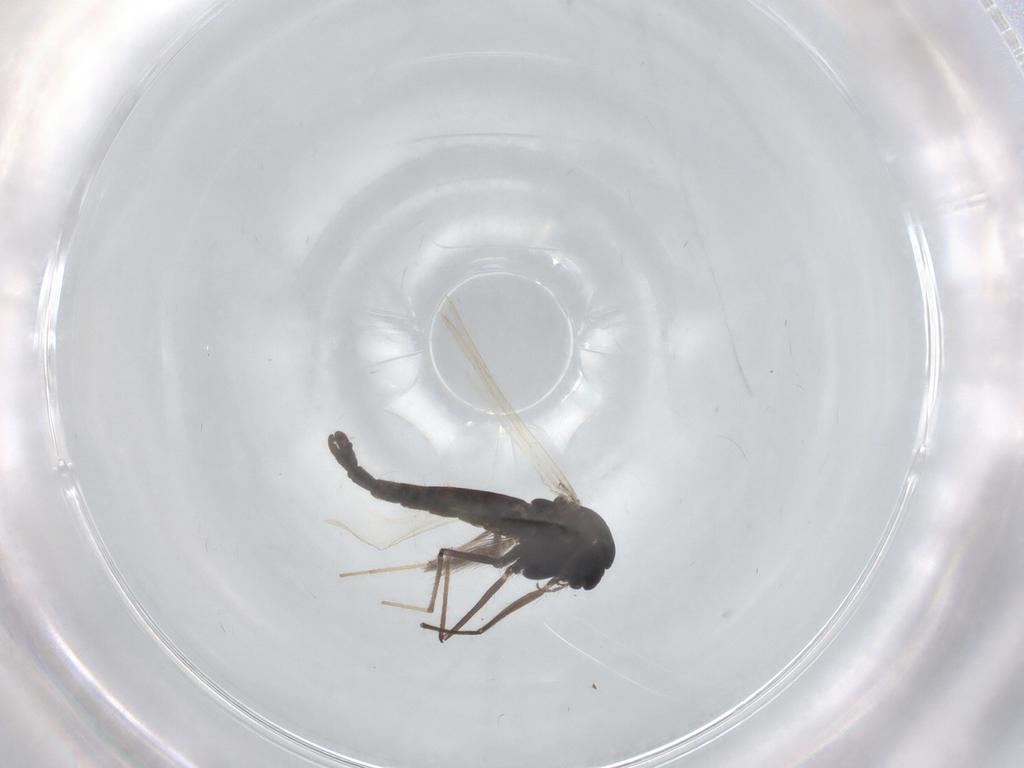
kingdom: Animalia
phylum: Arthropoda
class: Insecta
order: Diptera
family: Chironomidae
